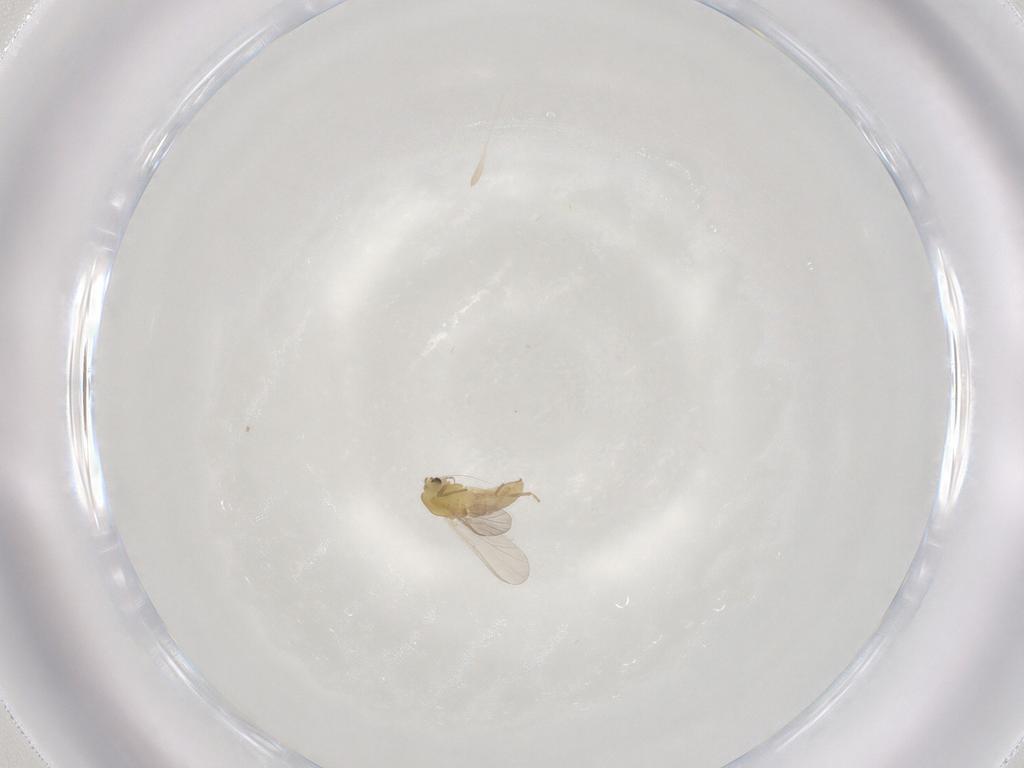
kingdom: Animalia
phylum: Arthropoda
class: Insecta
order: Diptera
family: Chironomidae
